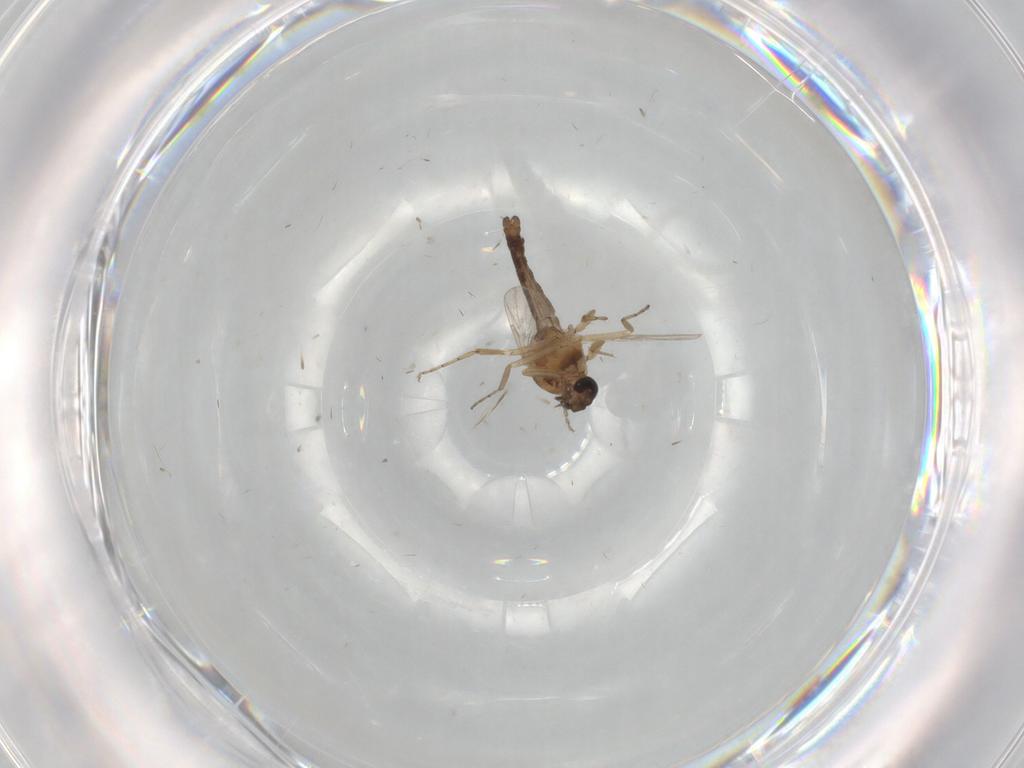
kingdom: Animalia
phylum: Arthropoda
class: Insecta
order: Diptera
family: Ceratopogonidae
